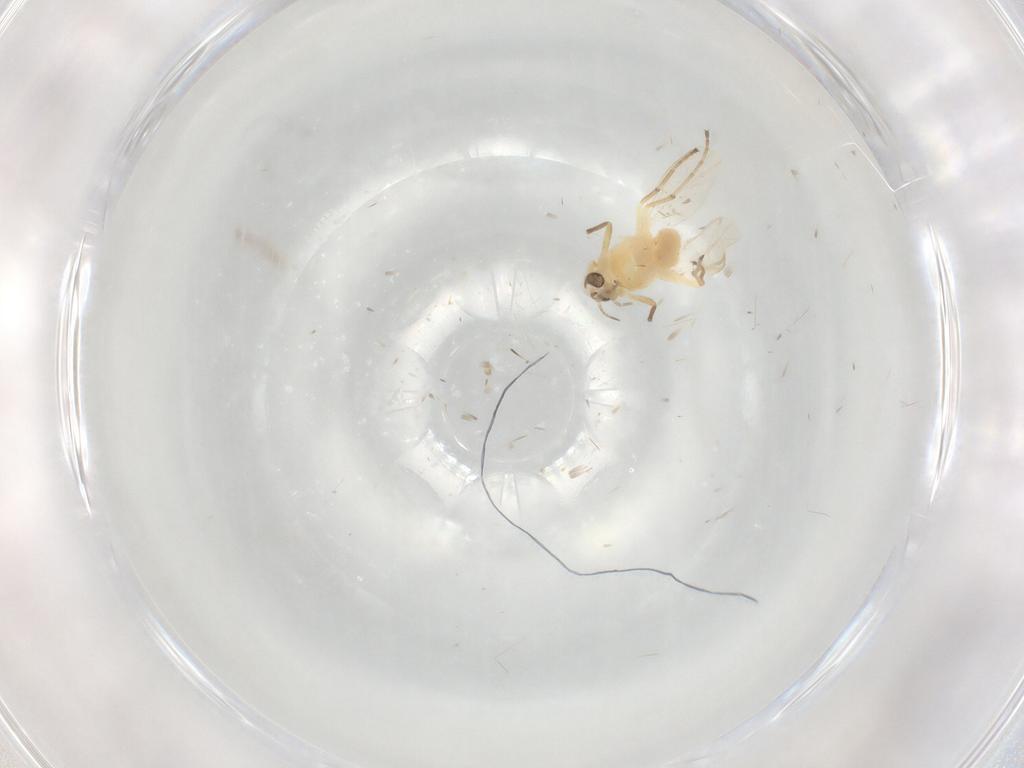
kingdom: Animalia
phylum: Arthropoda
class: Insecta
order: Diptera
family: Chironomidae
